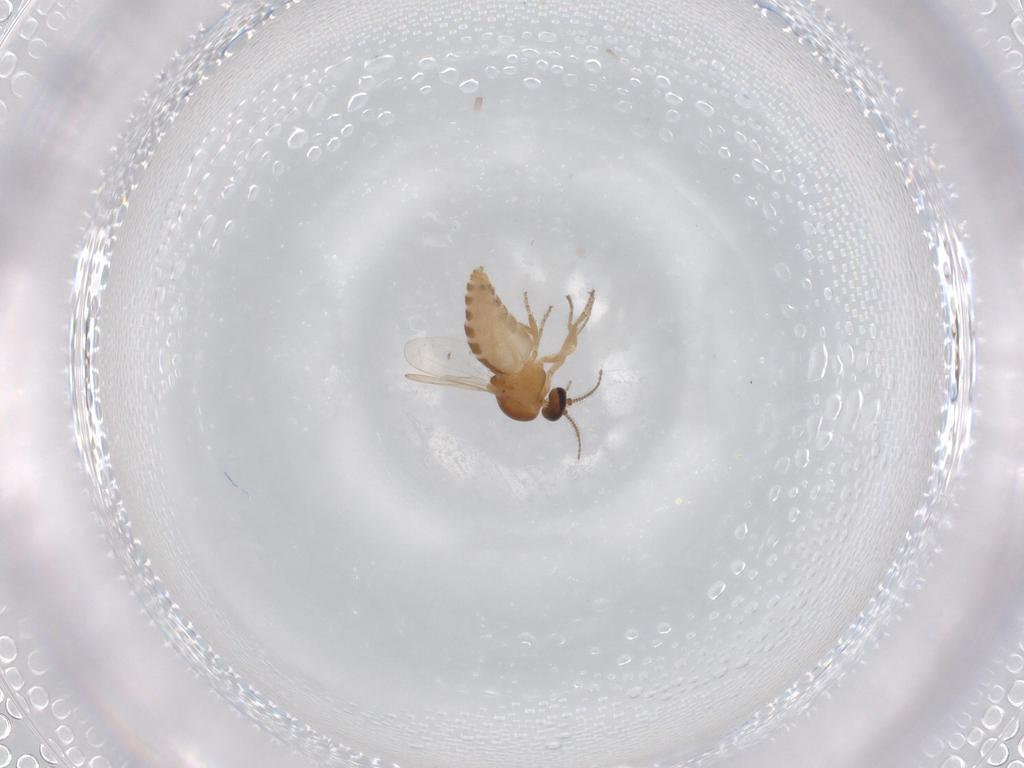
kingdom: Animalia
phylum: Arthropoda
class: Insecta
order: Diptera
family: Ceratopogonidae
